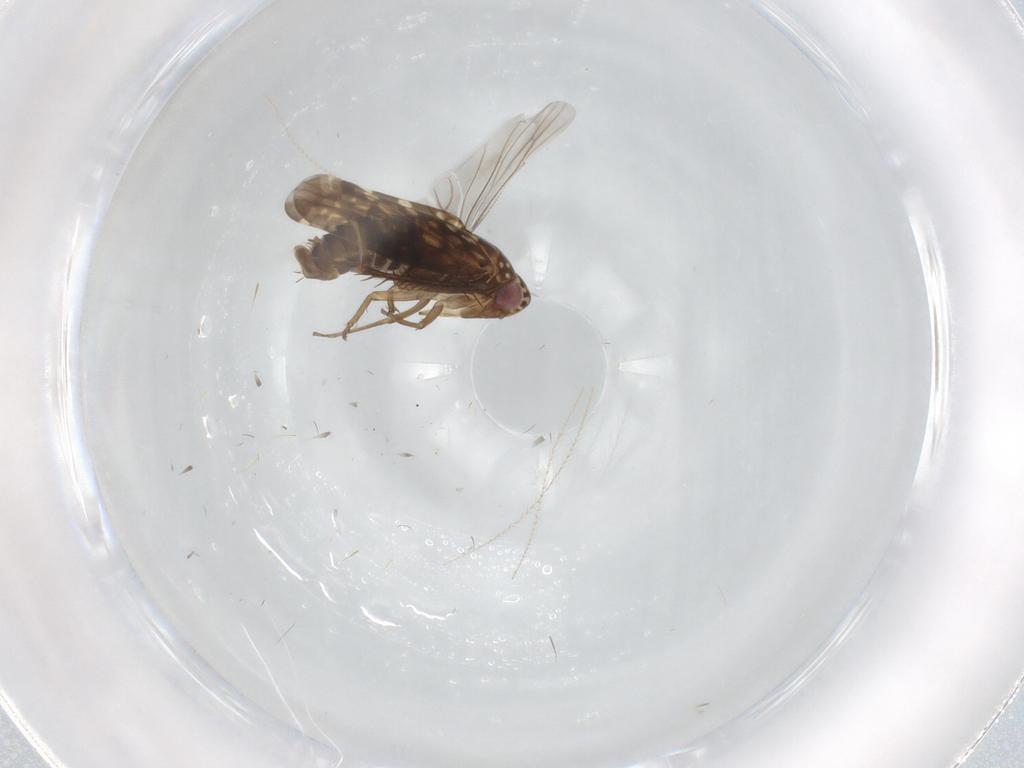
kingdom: Animalia
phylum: Arthropoda
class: Insecta
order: Hemiptera
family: Cicadellidae
